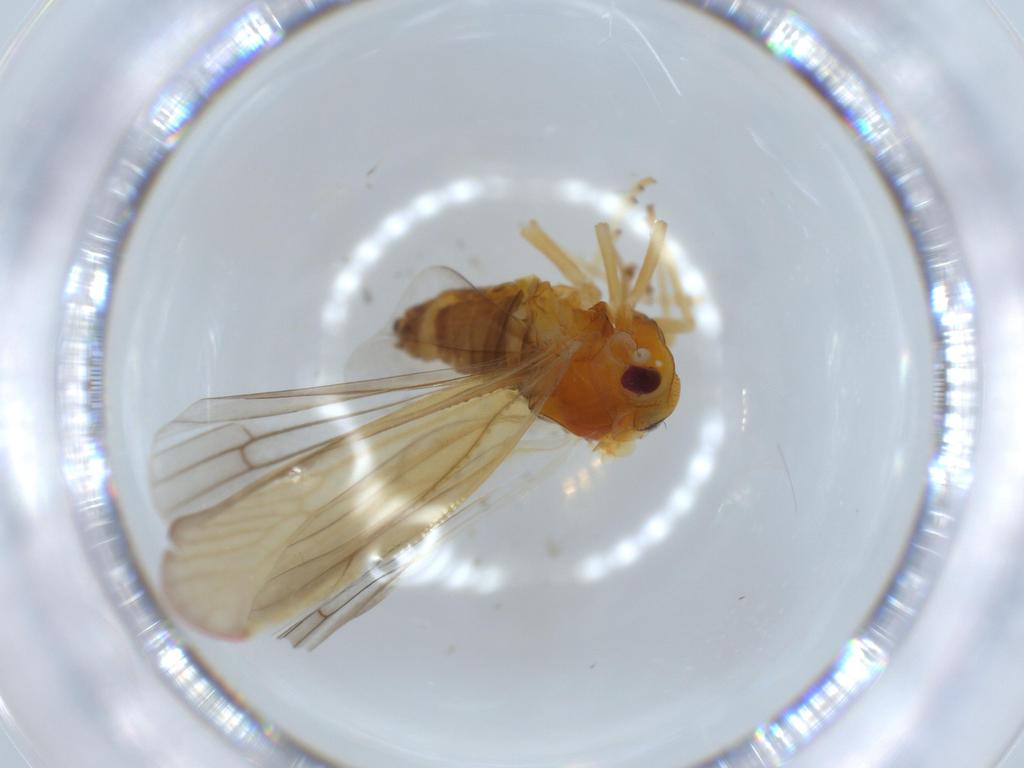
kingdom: Animalia
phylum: Arthropoda
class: Insecta
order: Hemiptera
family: Derbidae
